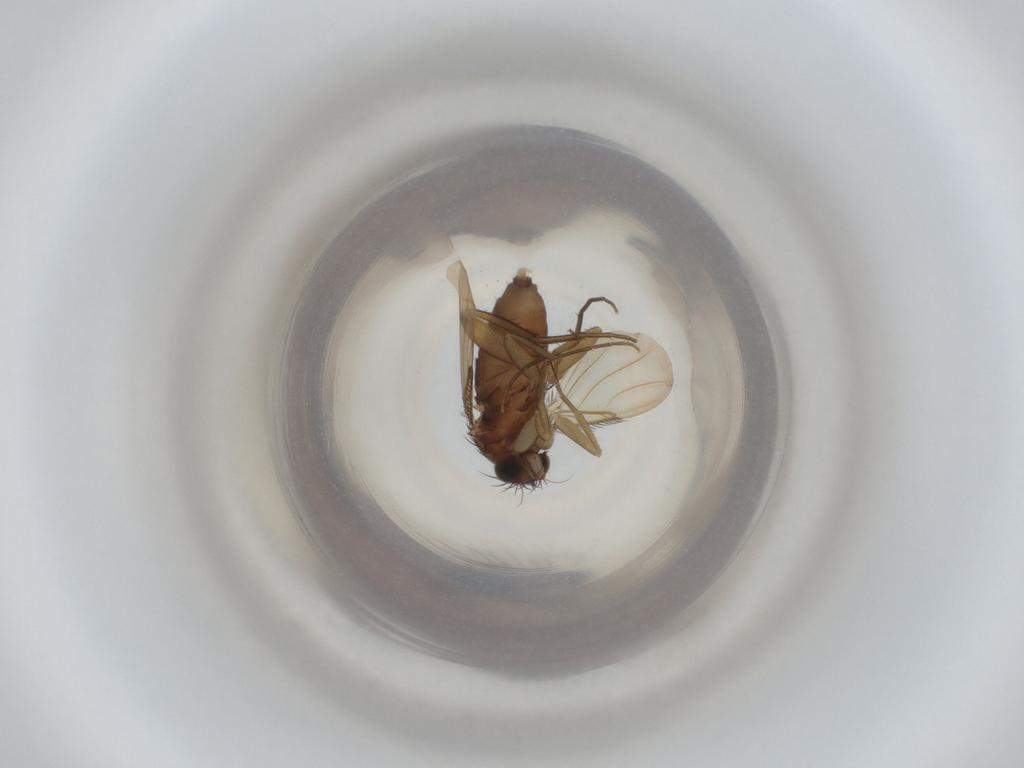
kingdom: Animalia
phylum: Arthropoda
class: Insecta
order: Diptera
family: Phoridae
